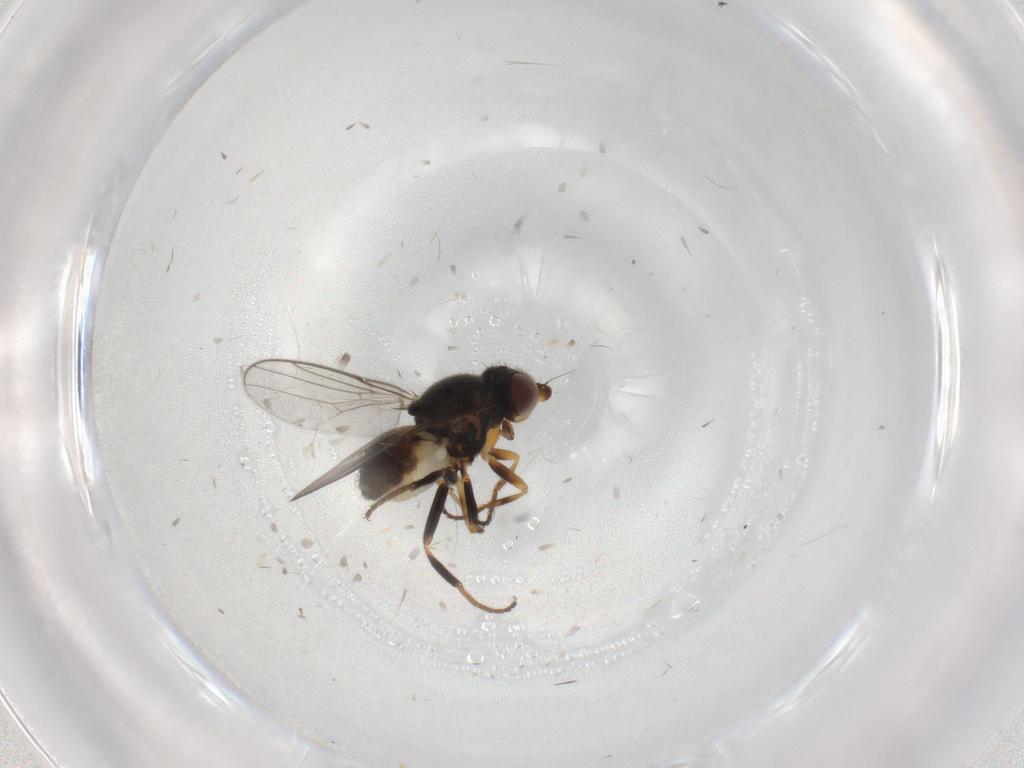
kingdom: Animalia
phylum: Arthropoda
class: Insecta
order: Diptera
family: Chloropidae
